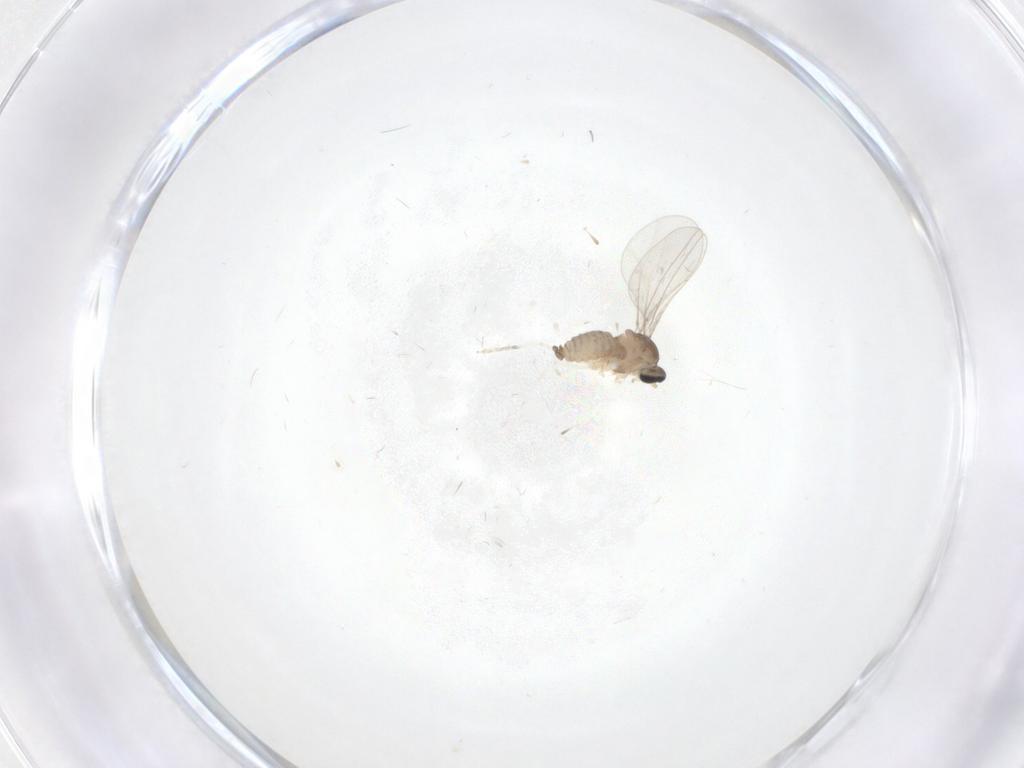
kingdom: Animalia
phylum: Arthropoda
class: Insecta
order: Diptera
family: Cecidomyiidae
